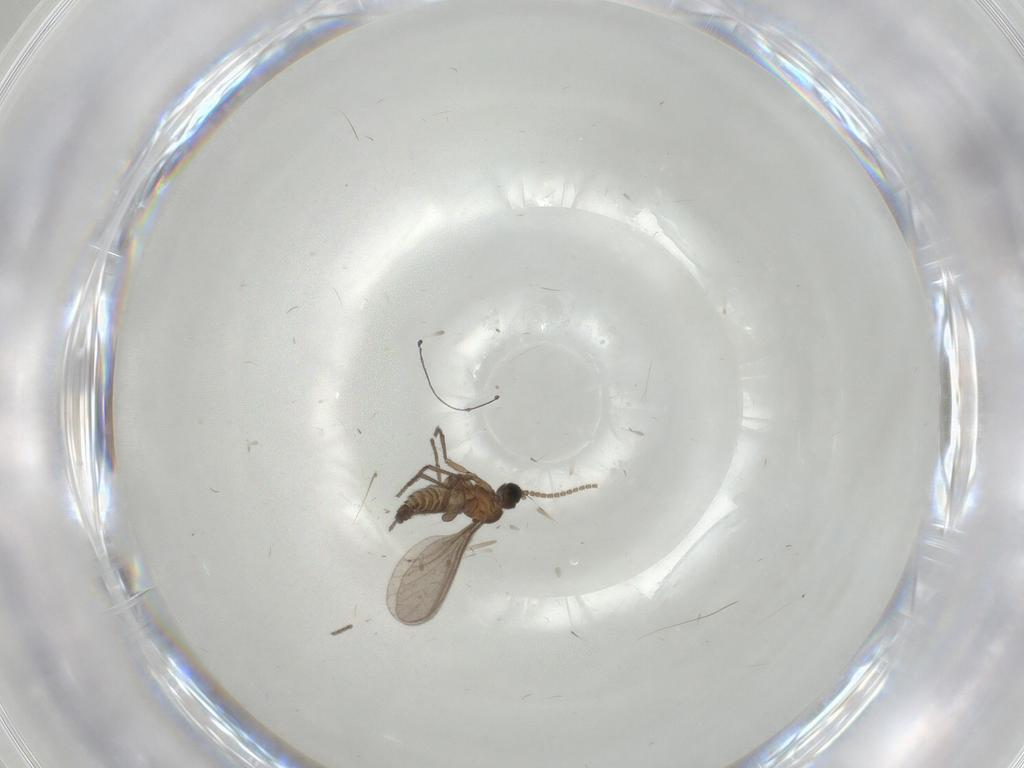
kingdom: Animalia
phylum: Arthropoda
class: Insecta
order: Diptera
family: Sciaridae
